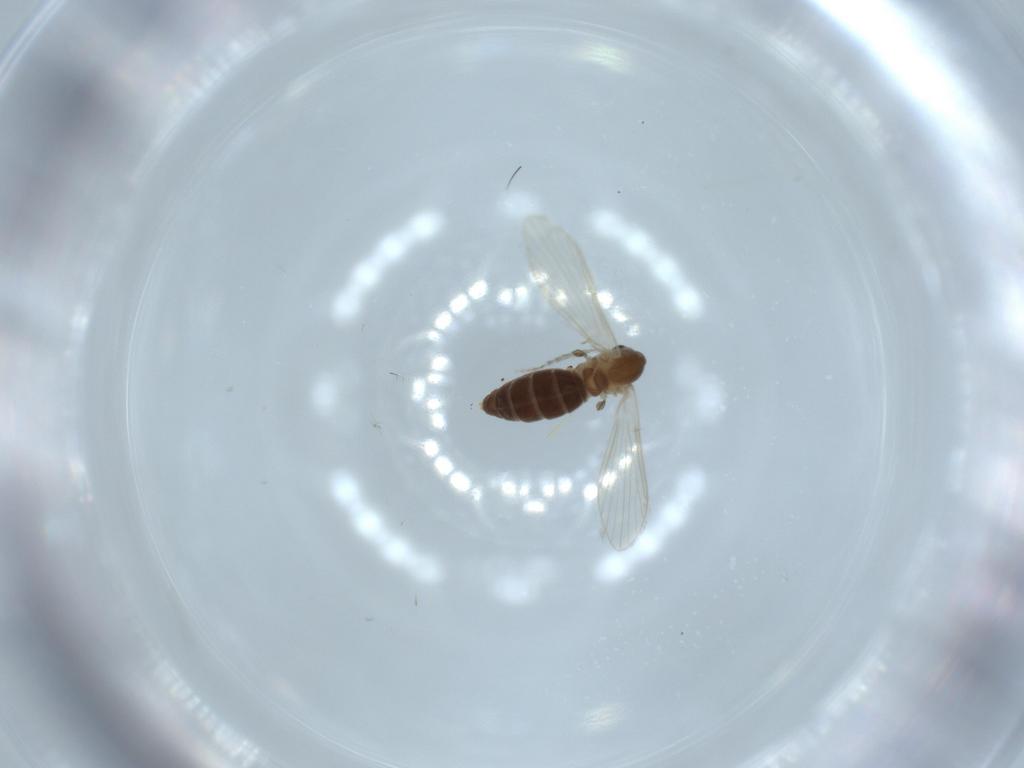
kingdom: Animalia
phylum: Arthropoda
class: Insecta
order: Diptera
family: Psychodidae
